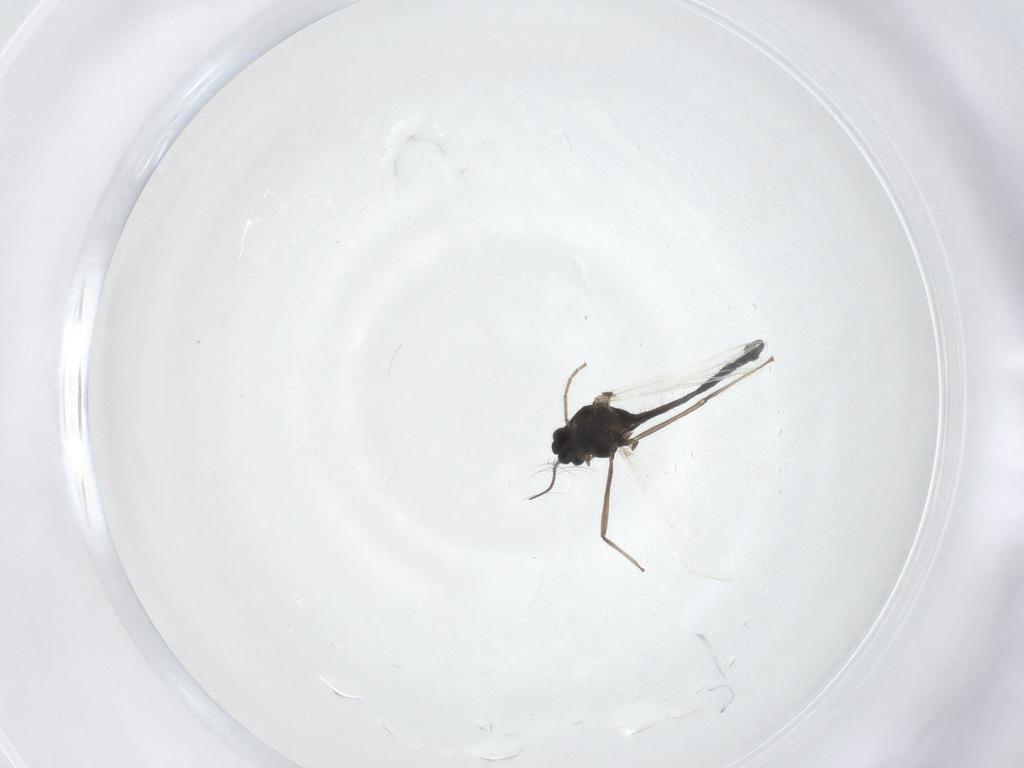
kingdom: Animalia
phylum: Arthropoda
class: Insecta
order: Diptera
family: Chironomidae
